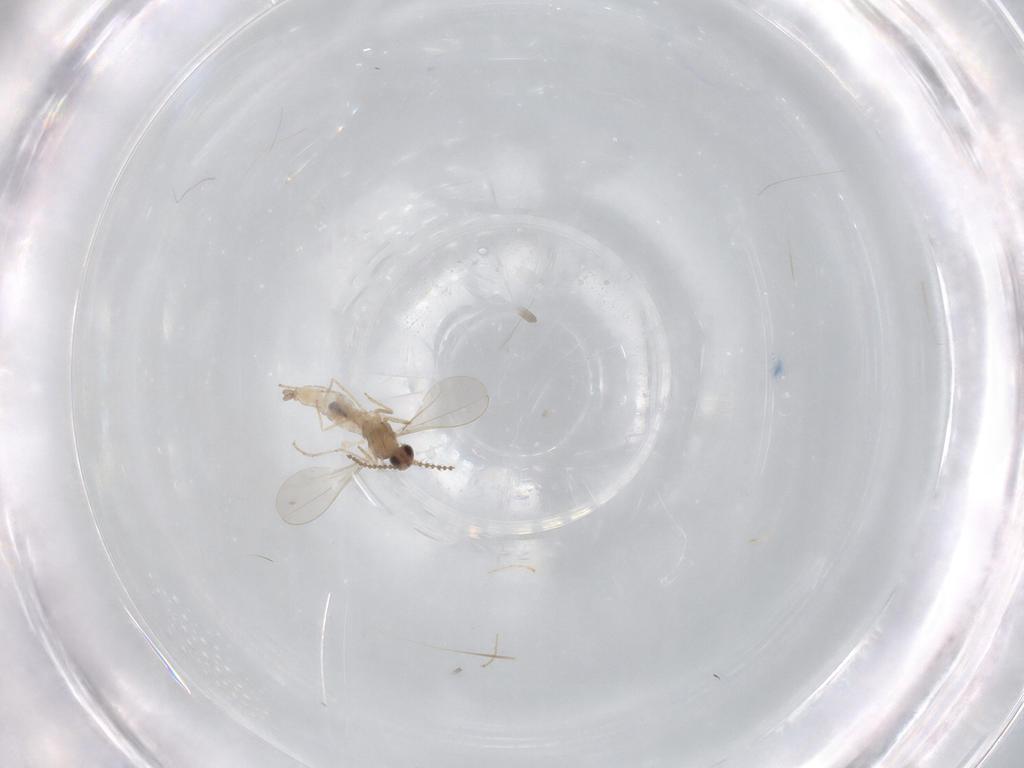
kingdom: Animalia
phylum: Arthropoda
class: Insecta
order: Diptera
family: Cecidomyiidae
